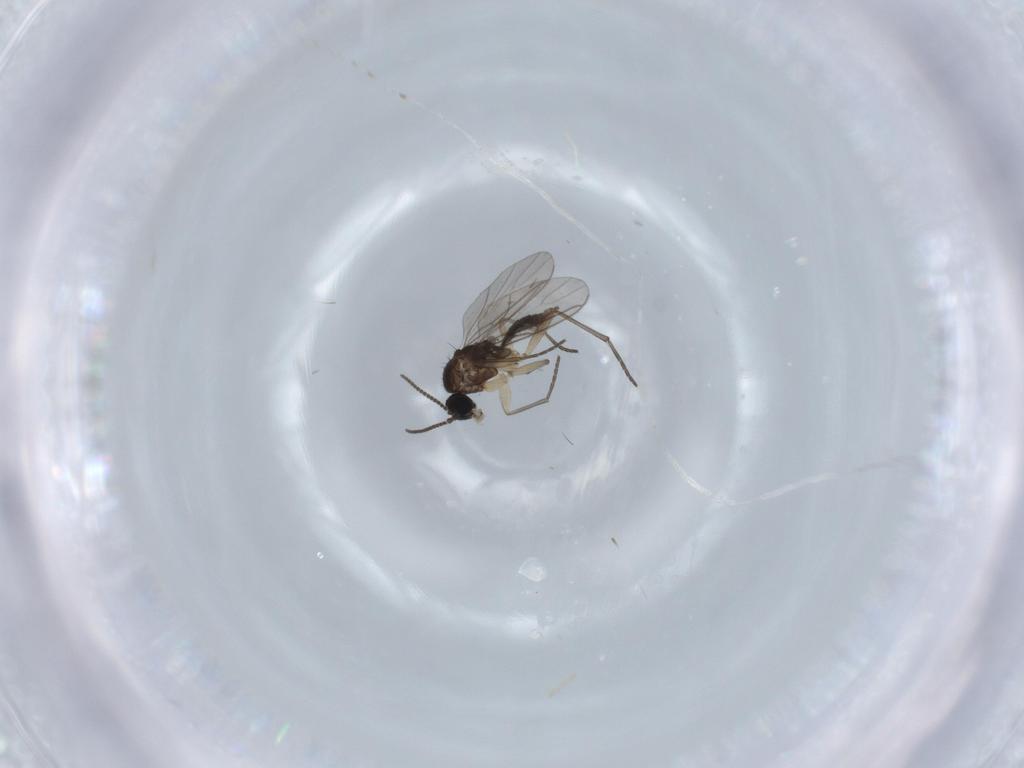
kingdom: Animalia
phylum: Arthropoda
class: Insecta
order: Diptera
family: Sciaridae
